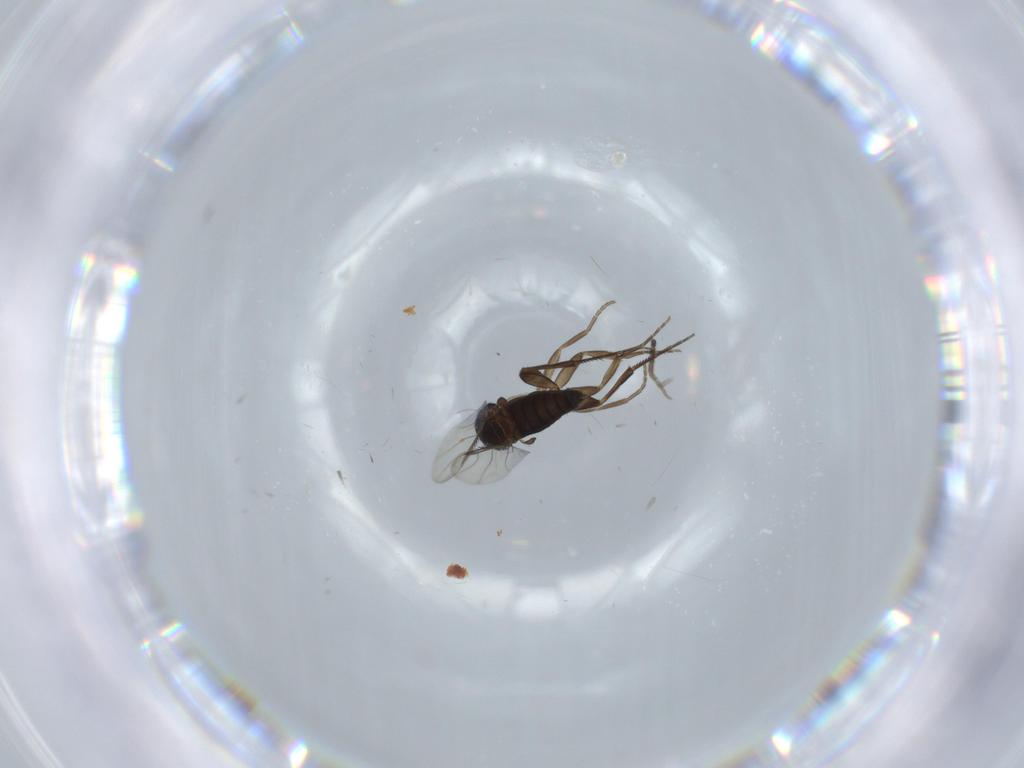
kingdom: Animalia
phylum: Arthropoda
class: Insecta
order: Diptera
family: Phoridae
